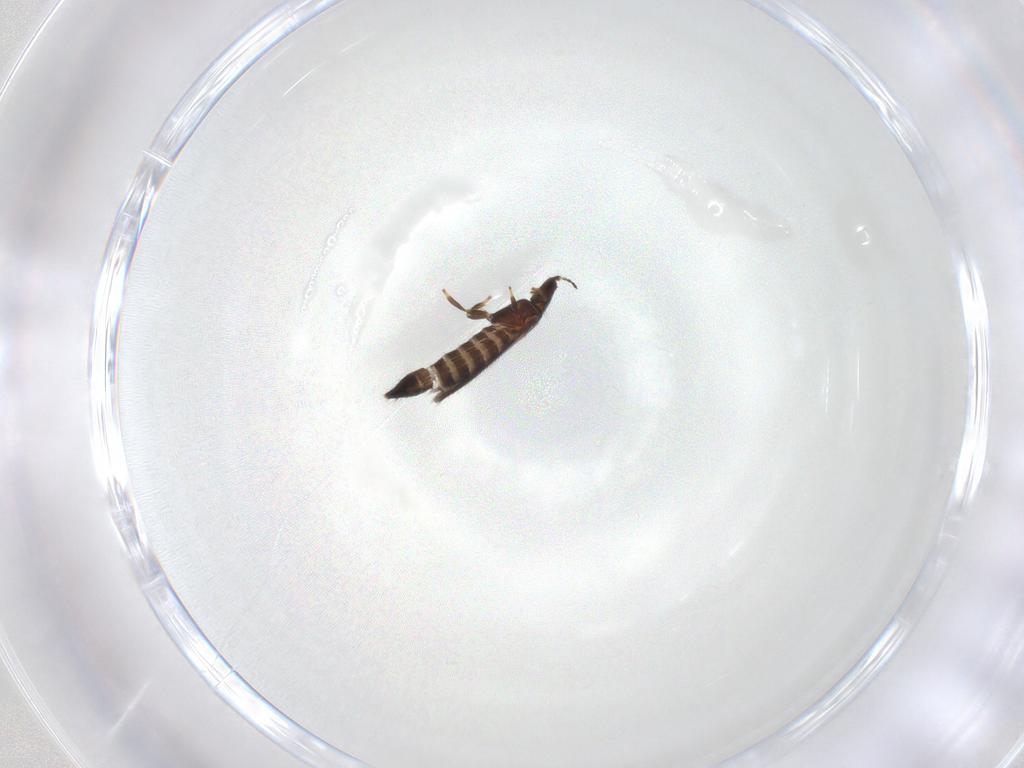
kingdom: Animalia
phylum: Arthropoda
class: Insecta
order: Thysanoptera
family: Thripidae
